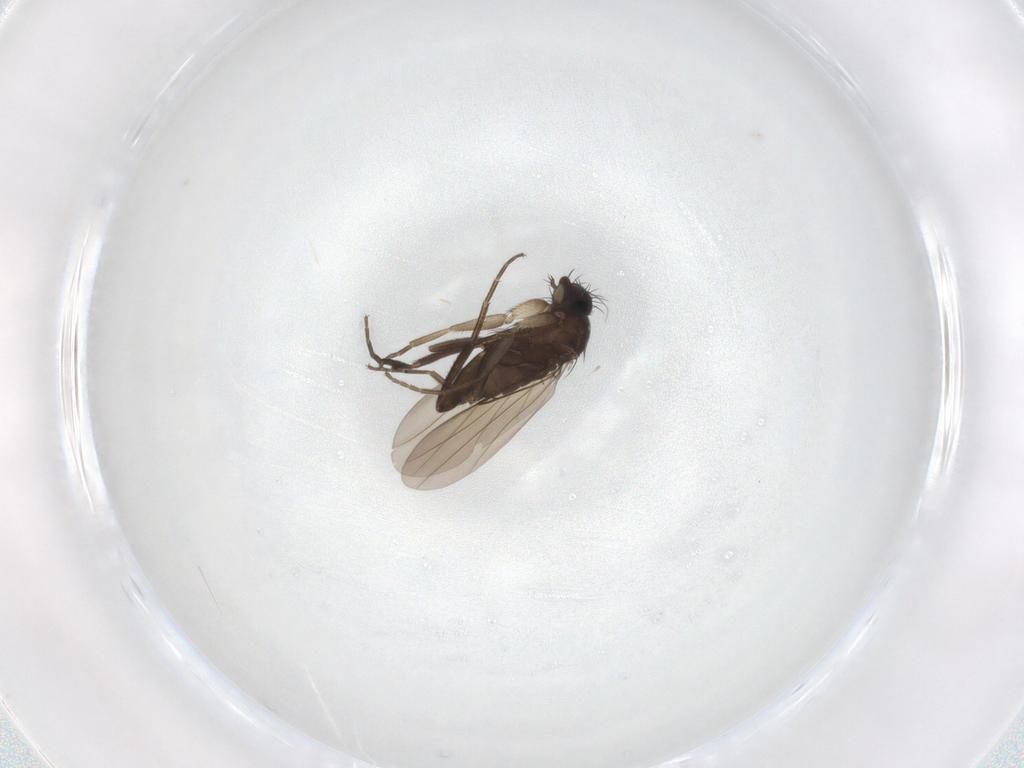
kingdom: Animalia
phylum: Arthropoda
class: Insecta
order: Diptera
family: Phoridae
